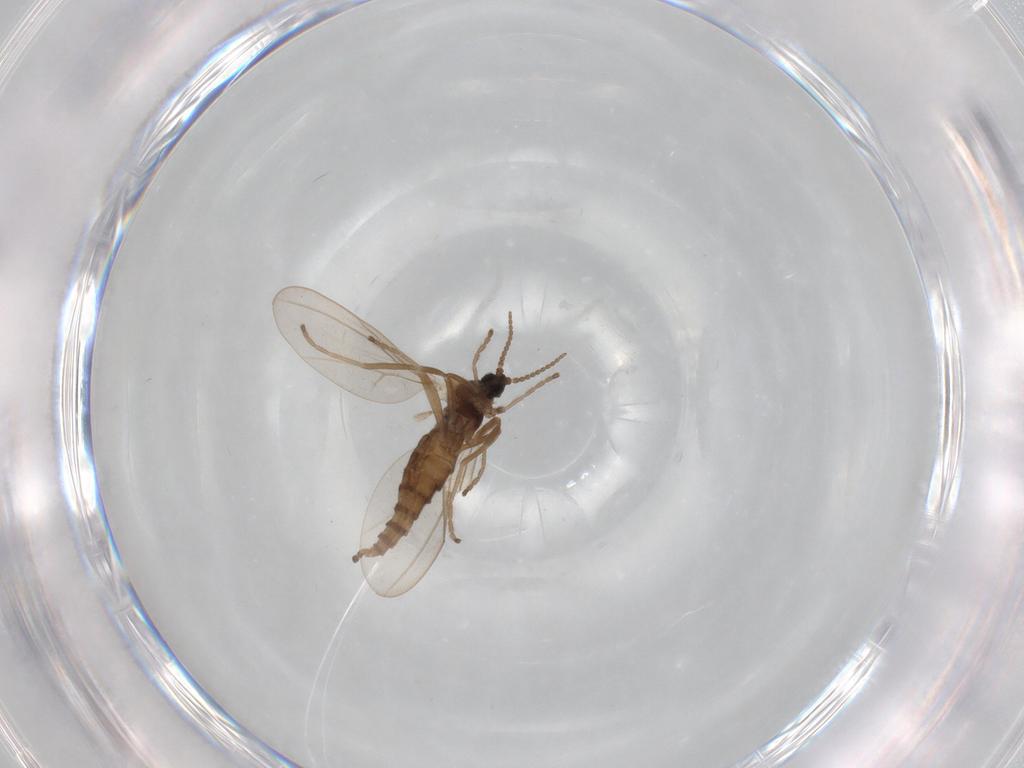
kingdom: Animalia
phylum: Arthropoda
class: Insecta
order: Diptera
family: Cecidomyiidae
